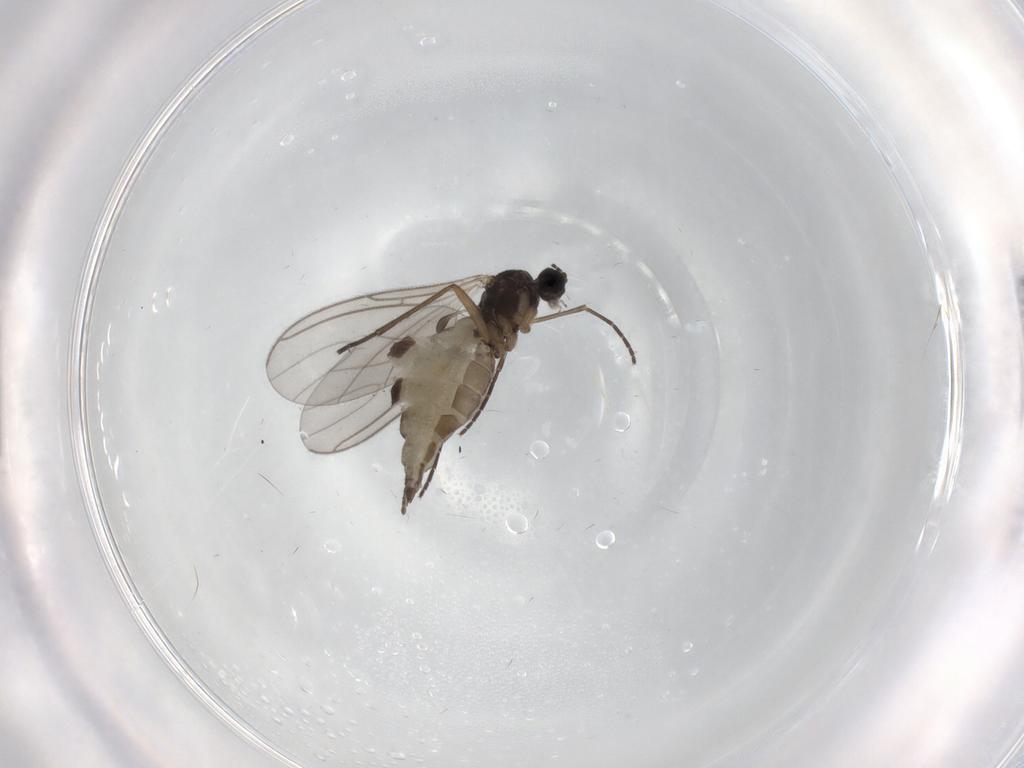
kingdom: Animalia
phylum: Arthropoda
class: Insecta
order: Diptera
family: Sciaridae
